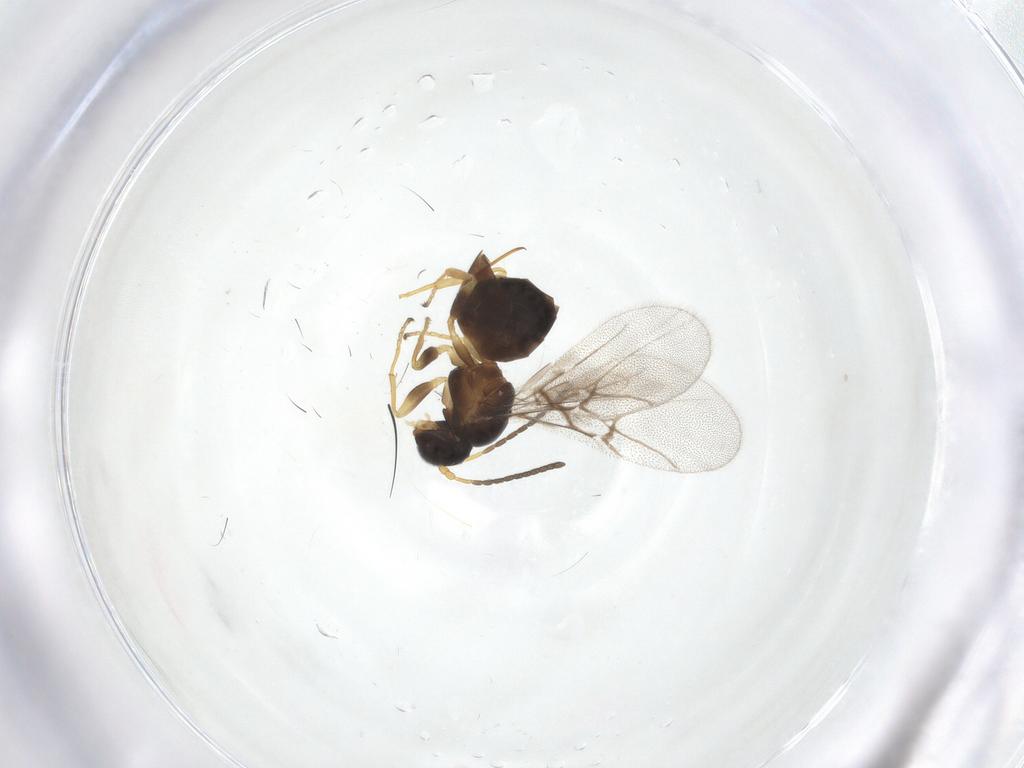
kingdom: Animalia
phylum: Arthropoda
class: Insecta
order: Hymenoptera
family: Cynipidae
